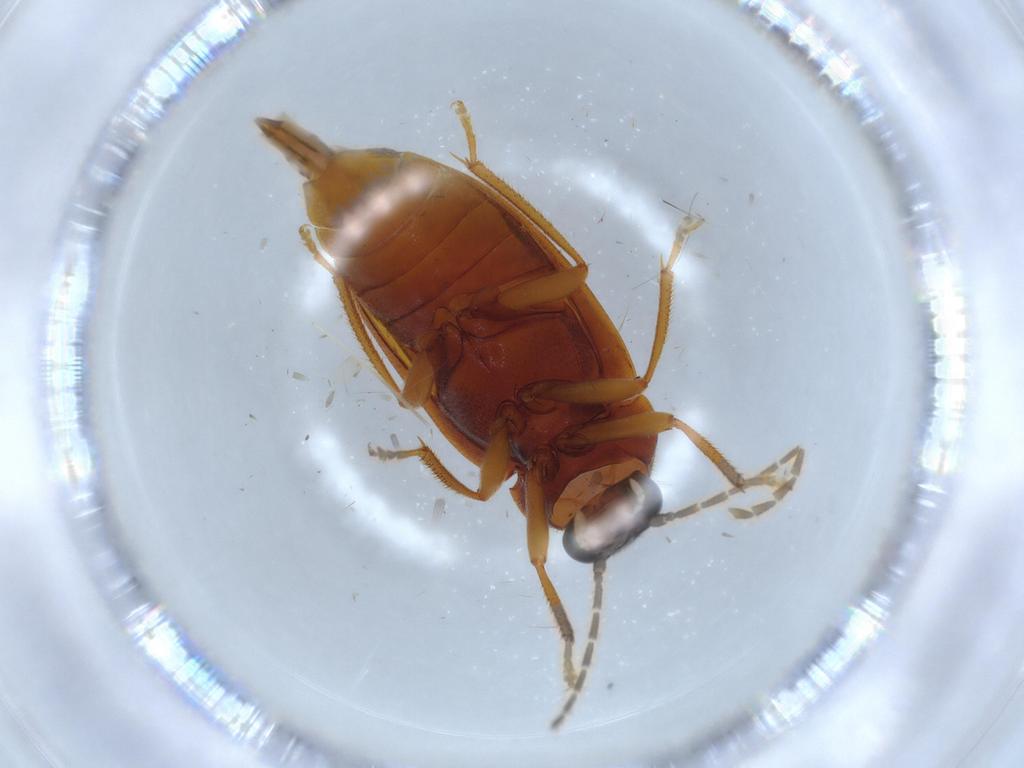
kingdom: Animalia
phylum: Arthropoda
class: Insecta
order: Coleoptera
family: Ptilodactylidae
